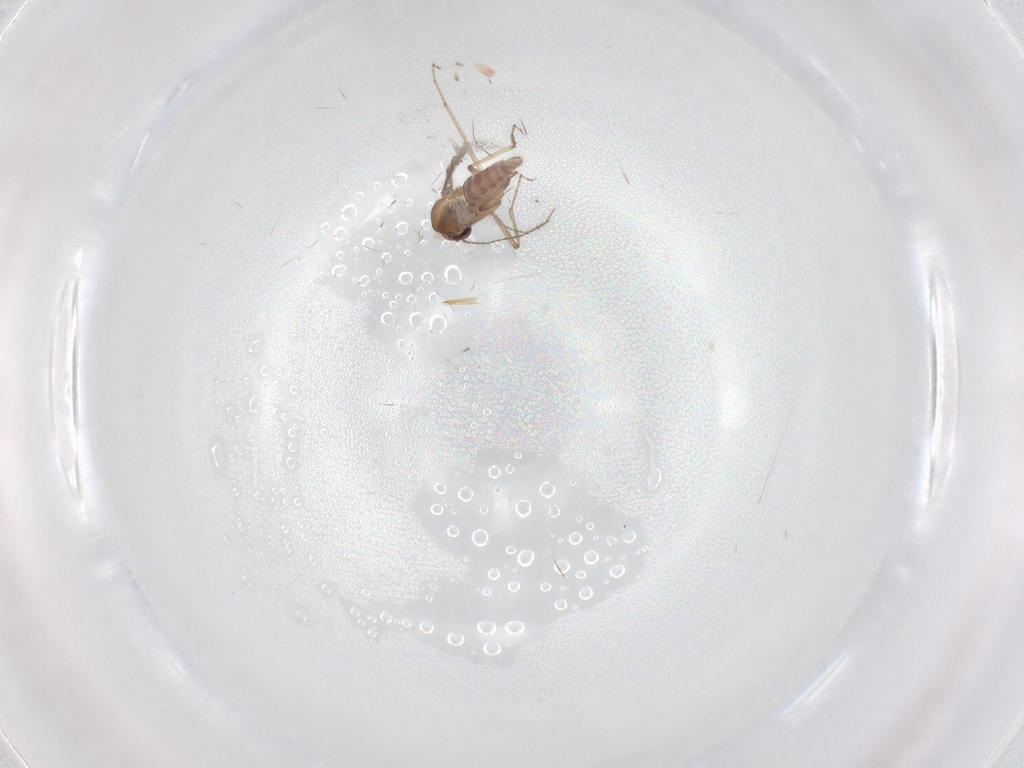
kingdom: Animalia
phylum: Arthropoda
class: Insecta
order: Diptera
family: Ceratopogonidae
